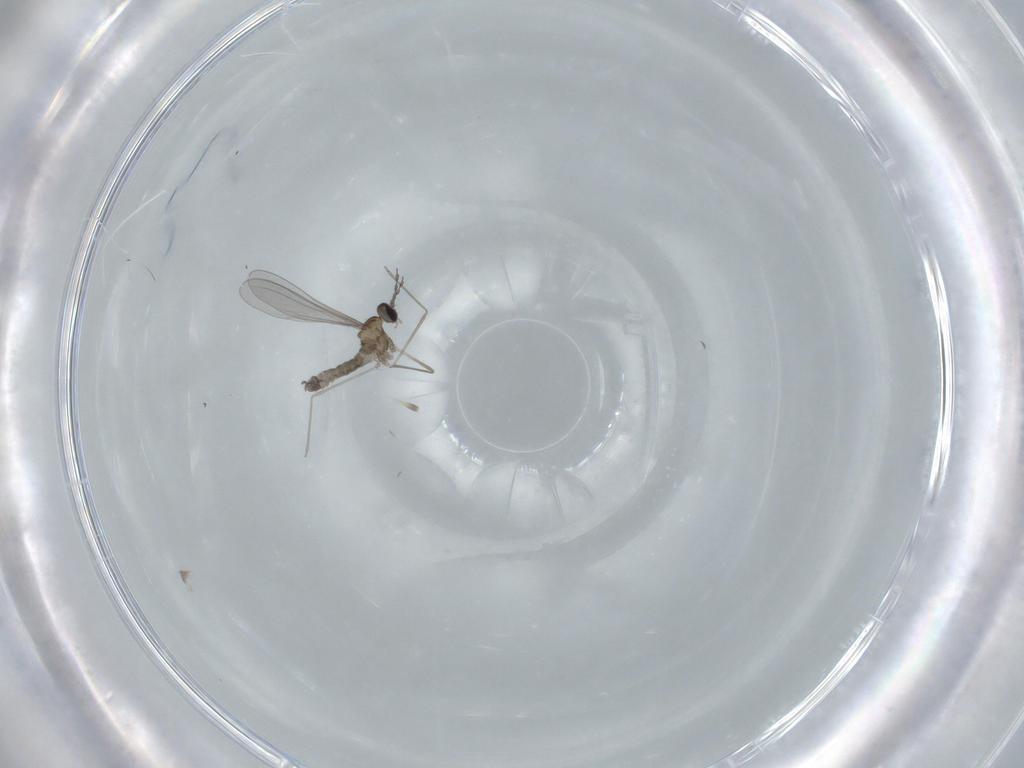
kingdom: Animalia
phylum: Arthropoda
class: Insecta
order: Diptera
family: Cecidomyiidae
